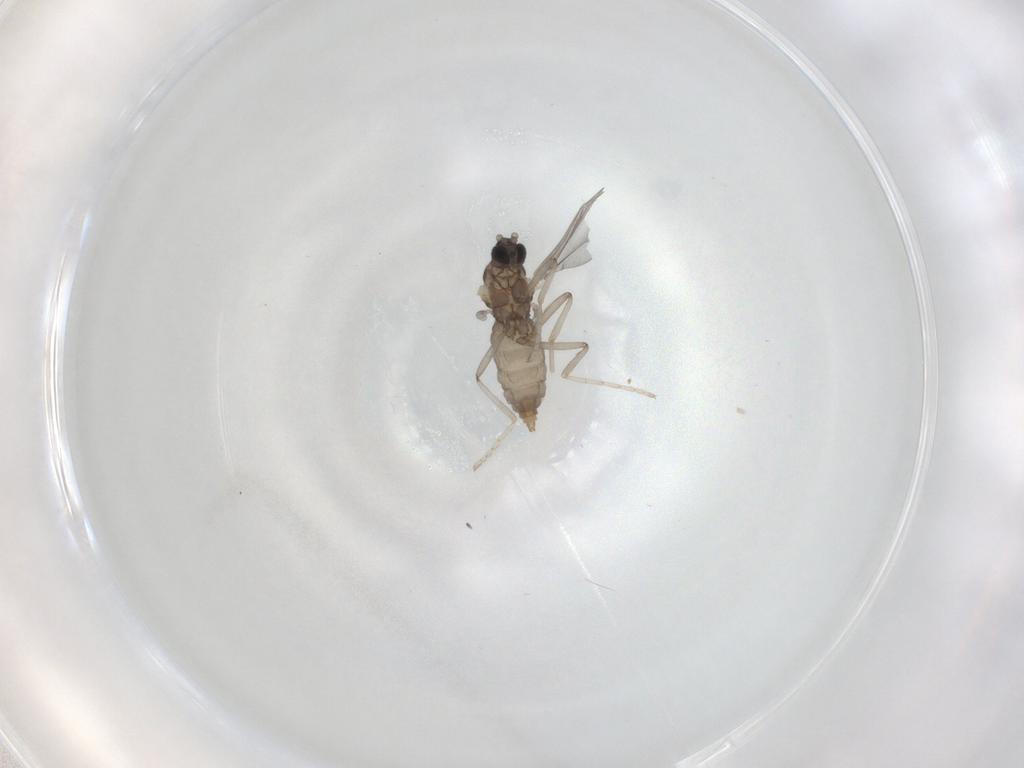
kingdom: Animalia
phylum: Arthropoda
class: Insecta
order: Diptera
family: Cecidomyiidae
